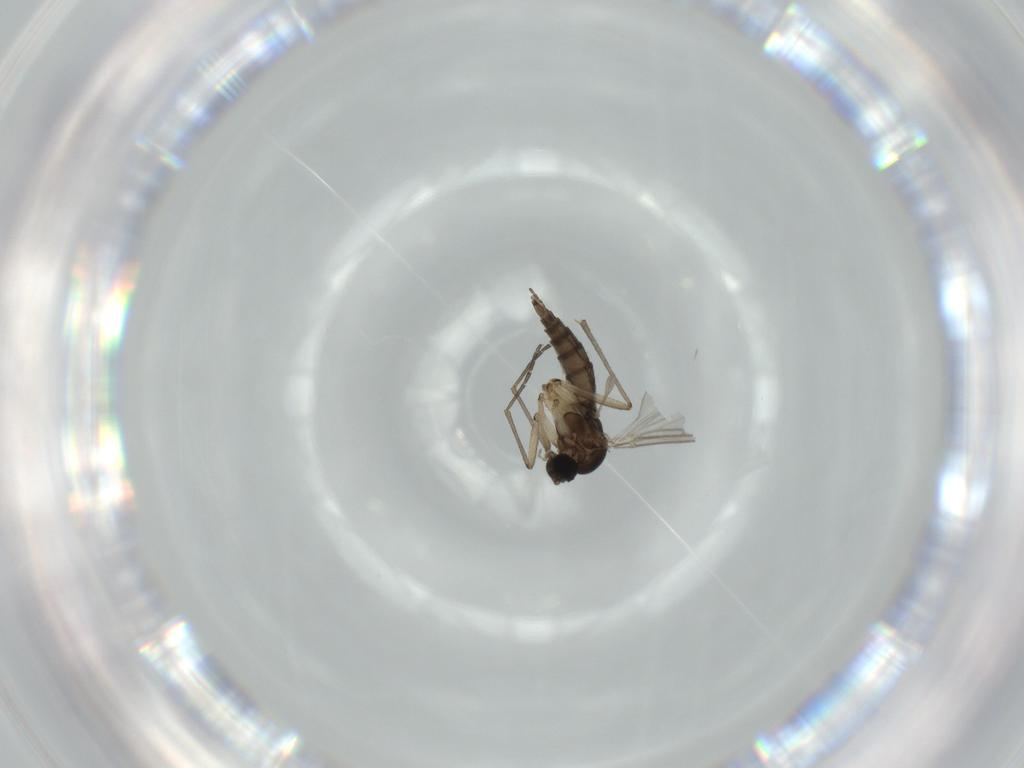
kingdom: Animalia
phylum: Arthropoda
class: Insecta
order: Diptera
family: Sciaridae
